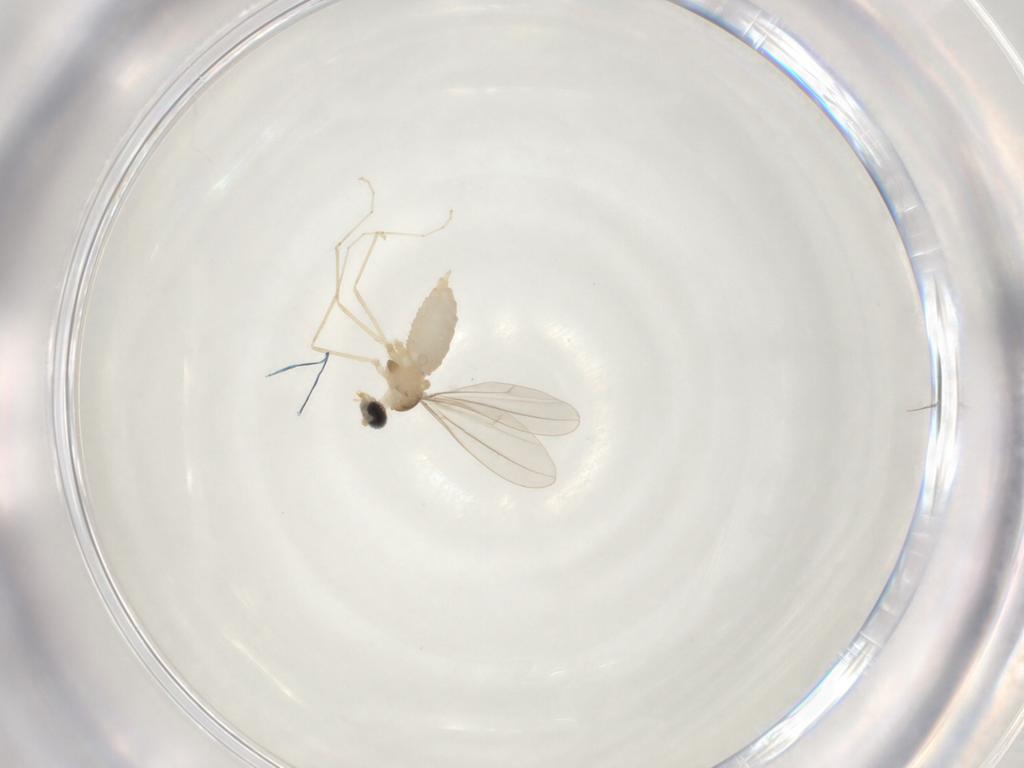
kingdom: Animalia
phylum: Arthropoda
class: Insecta
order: Diptera
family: Cecidomyiidae
